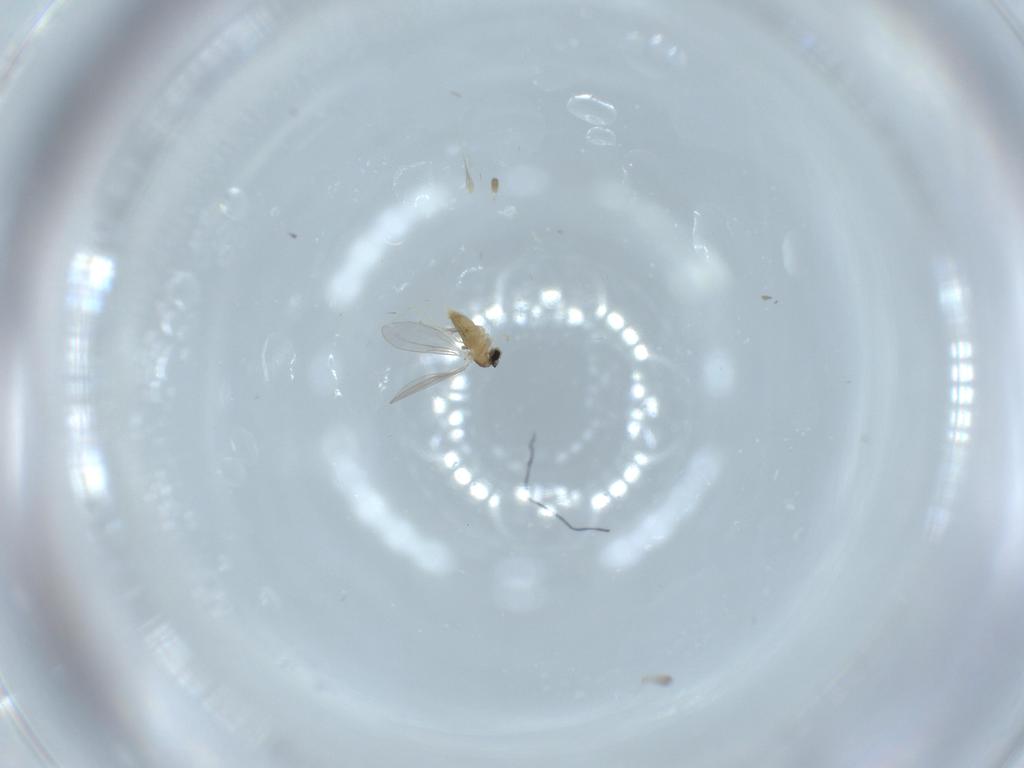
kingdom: Animalia
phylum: Arthropoda
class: Insecta
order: Diptera
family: Cecidomyiidae
